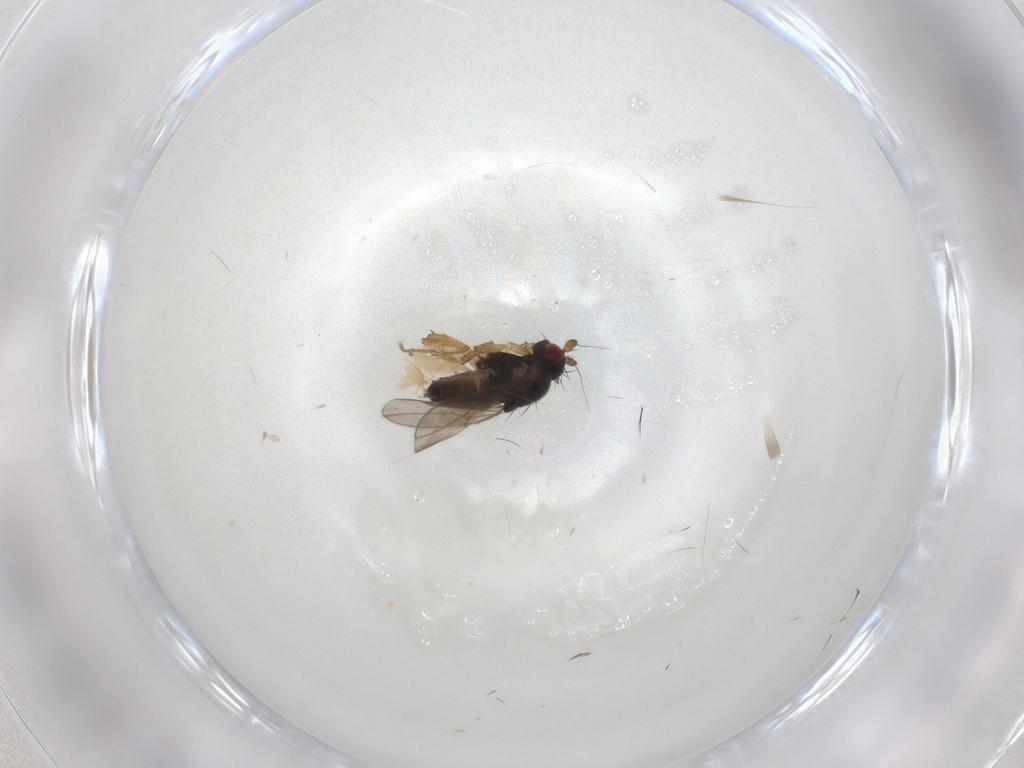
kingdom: Animalia
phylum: Arthropoda
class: Insecta
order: Diptera
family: Sphaeroceridae
